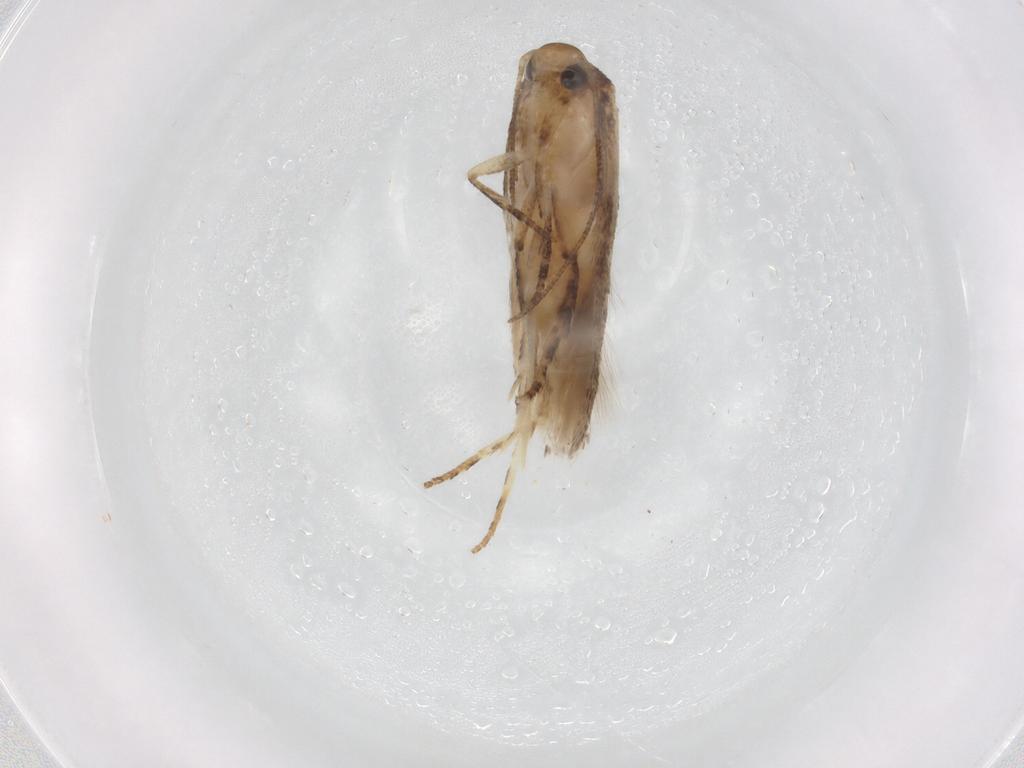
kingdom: Animalia
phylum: Arthropoda
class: Insecta
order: Lepidoptera
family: Gelechiidae
